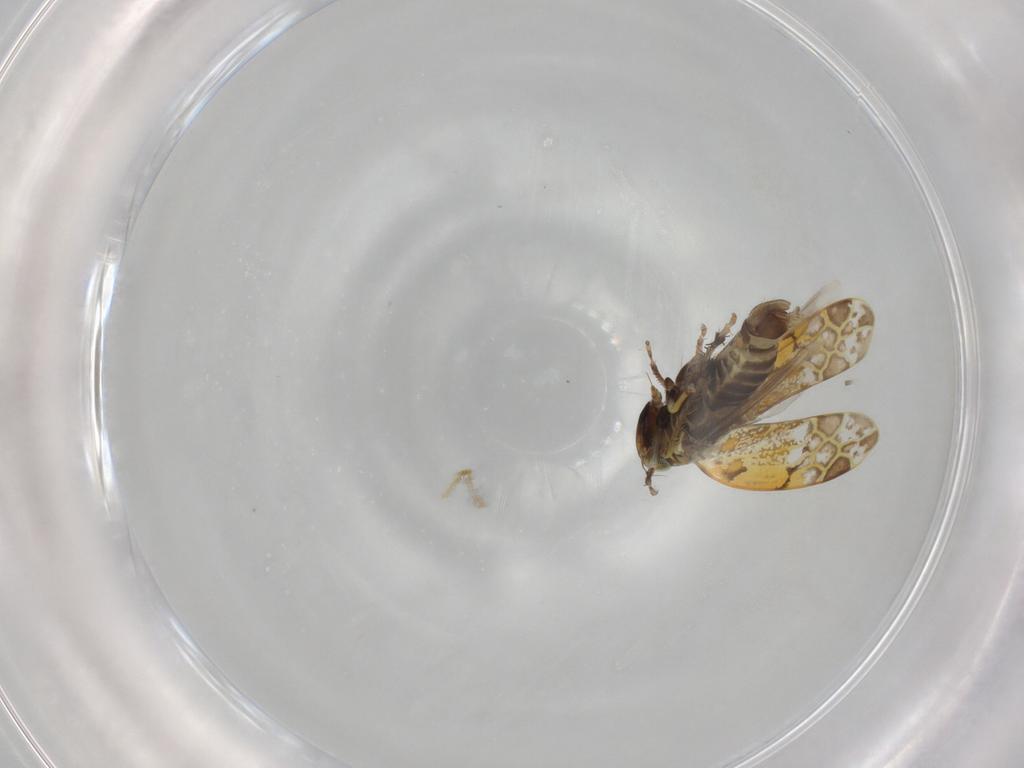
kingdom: Animalia
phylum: Arthropoda
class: Insecta
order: Hemiptera
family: Cicadellidae
